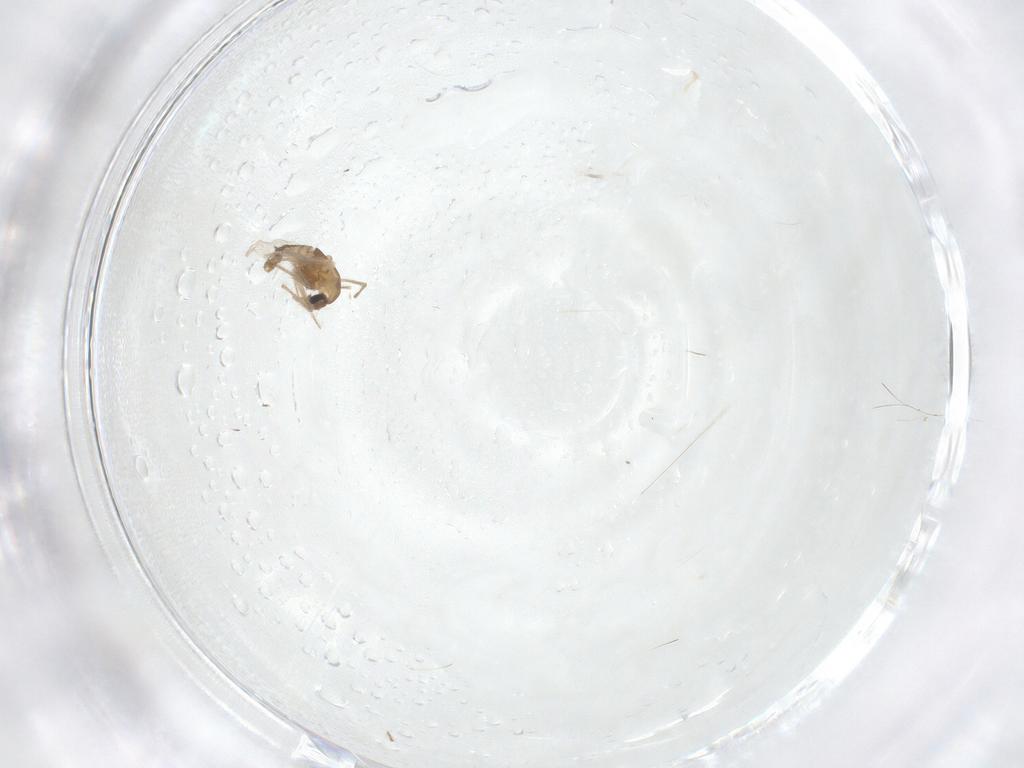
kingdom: Animalia
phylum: Arthropoda
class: Insecta
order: Diptera
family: Chironomidae
